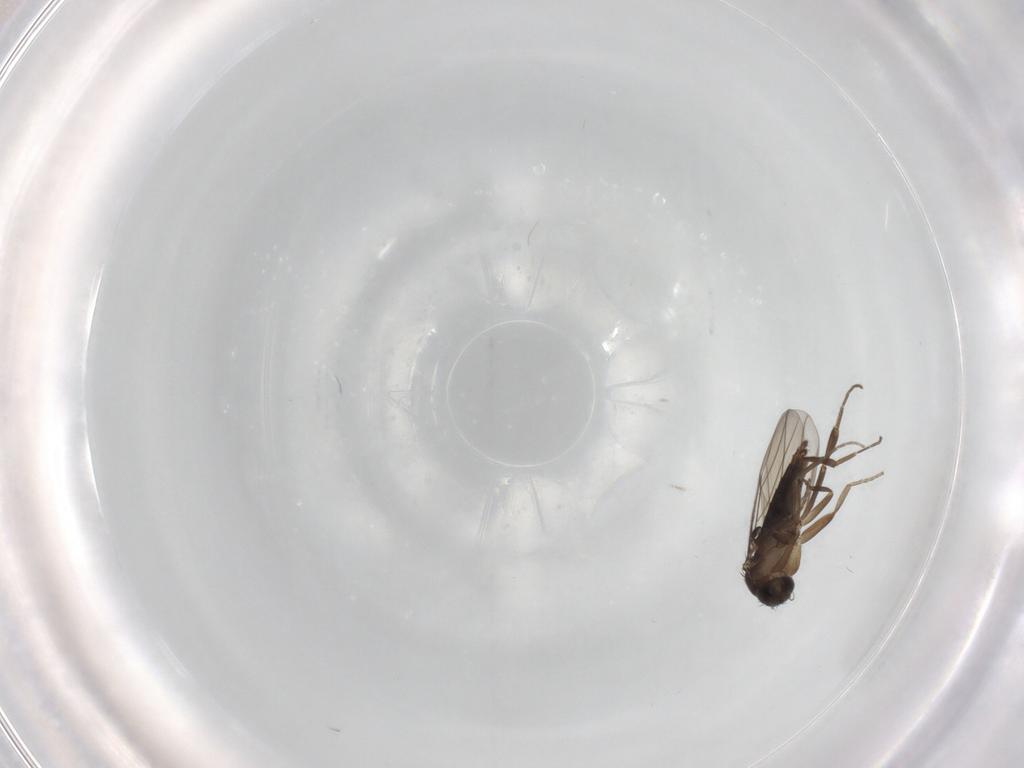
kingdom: Animalia
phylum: Arthropoda
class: Insecta
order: Diptera
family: Phoridae
